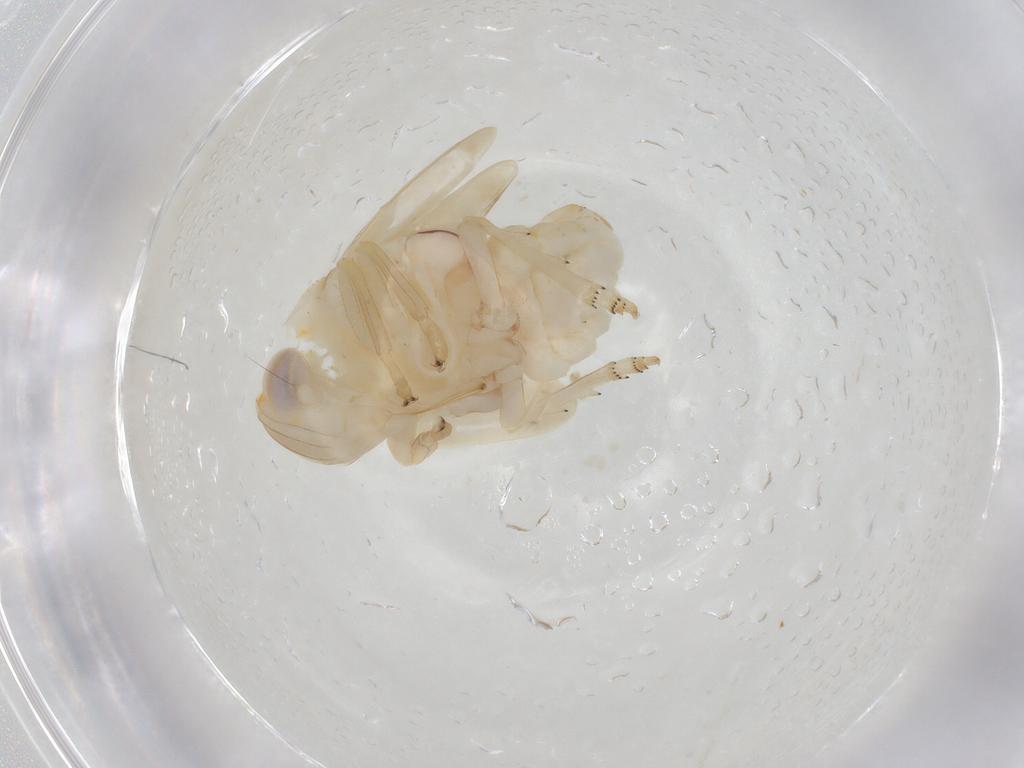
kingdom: Animalia
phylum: Arthropoda
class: Insecta
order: Hemiptera
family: Nogodinidae
